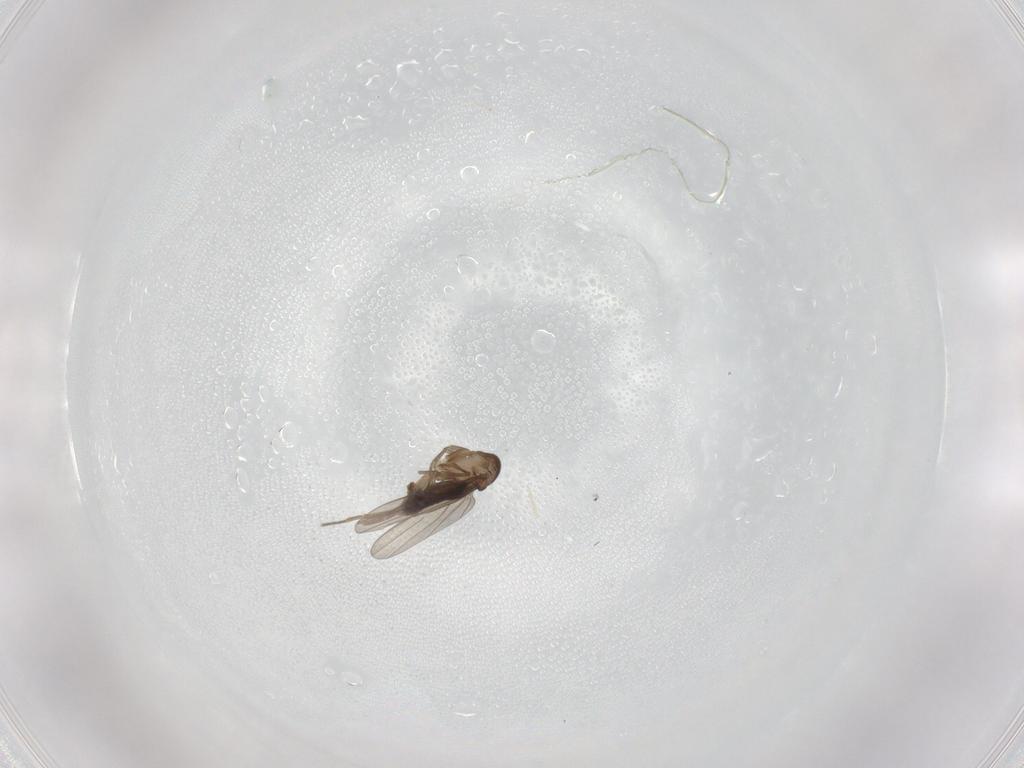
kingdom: Animalia
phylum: Arthropoda
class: Insecta
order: Diptera
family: Phoridae
